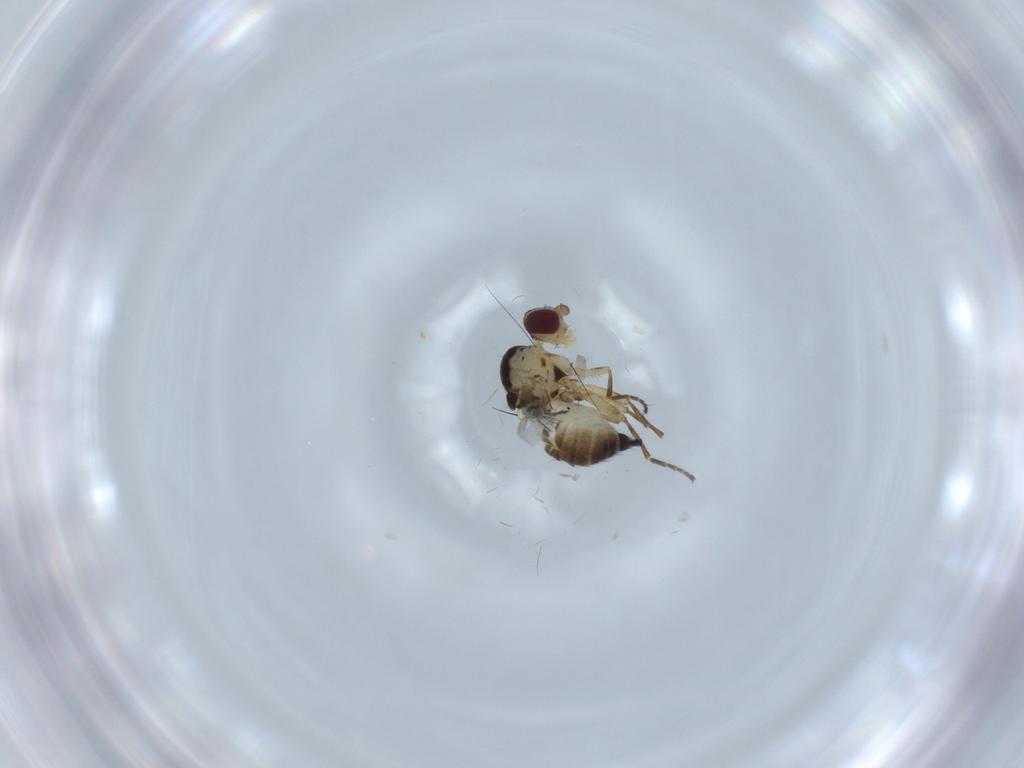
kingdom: Animalia
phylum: Arthropoda
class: Insecta
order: Diptera
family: Agromyzidae
